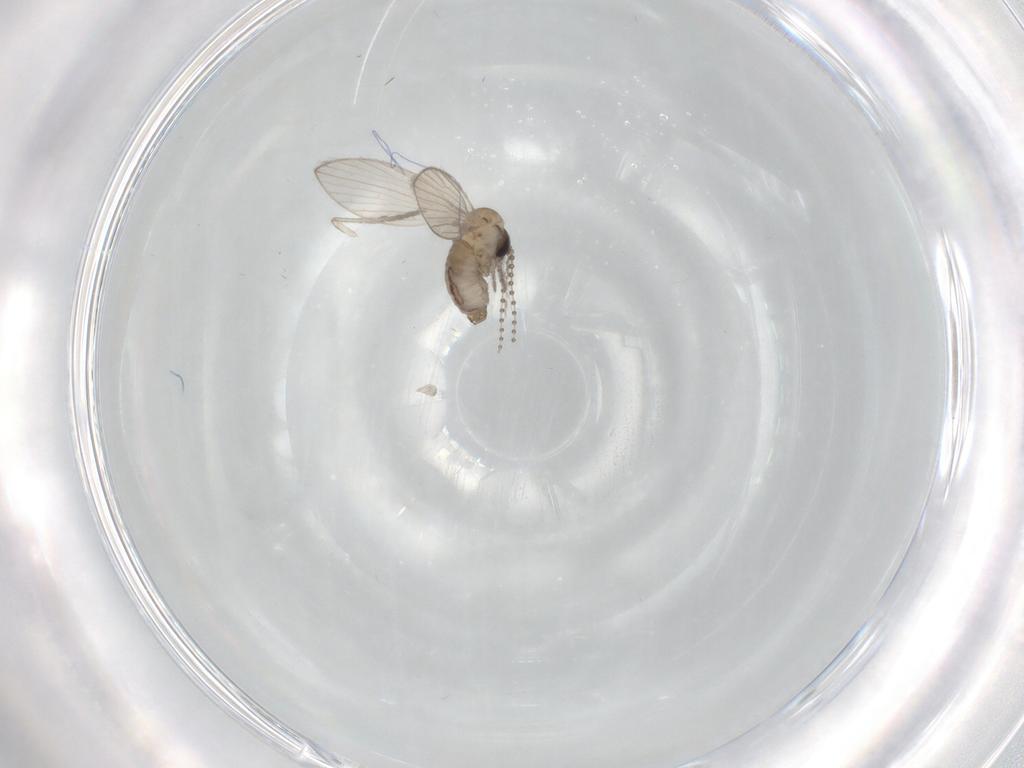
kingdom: Animalia
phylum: Arthropoda
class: Insecta
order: Diptera
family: Psychodidae
